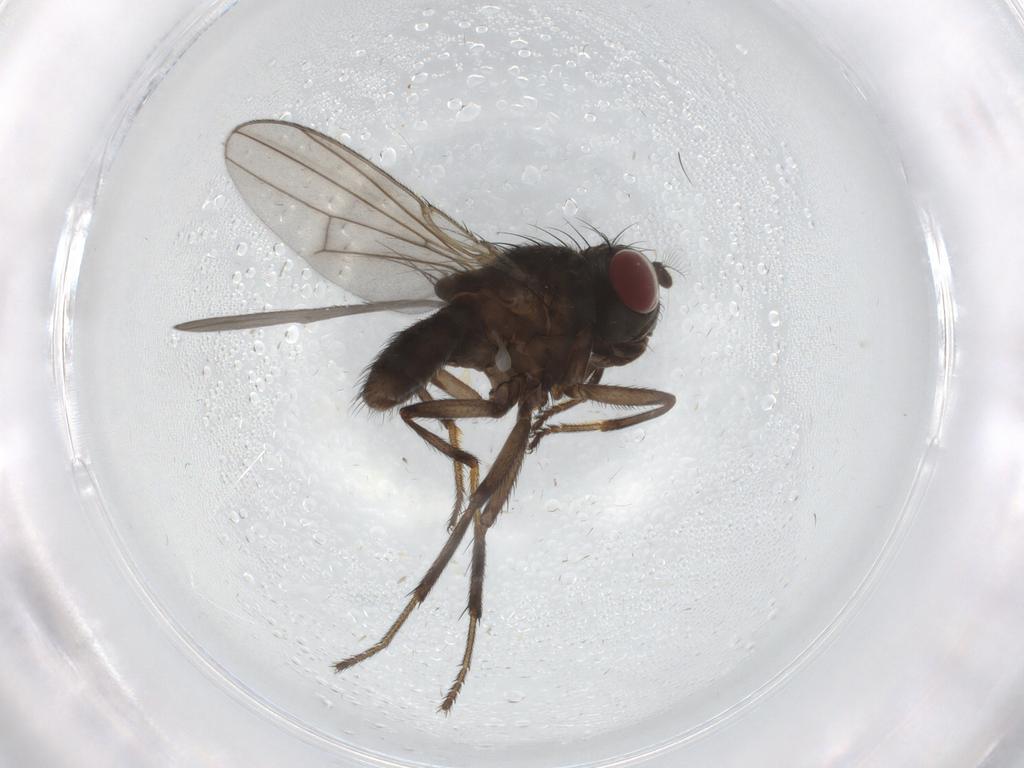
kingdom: Animalia
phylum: Arthropoda
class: Insecta
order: Diptera
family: Ephydridae
